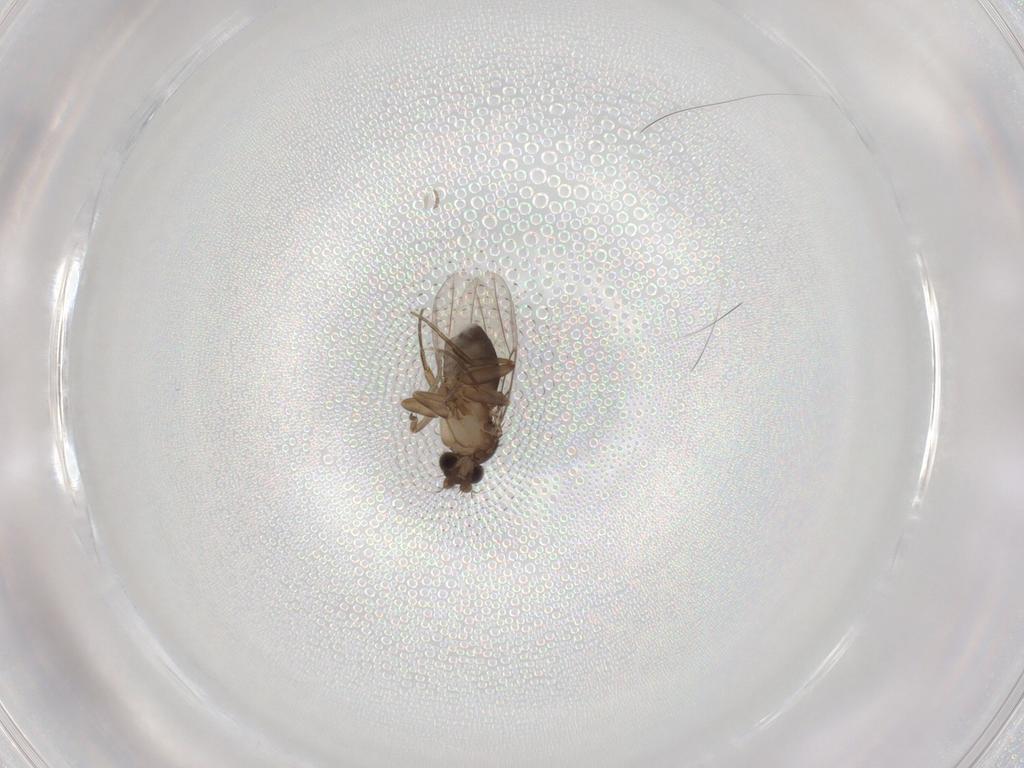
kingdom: Animalia
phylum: Arthropoda
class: Insecta
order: Diptera
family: Phoridae
